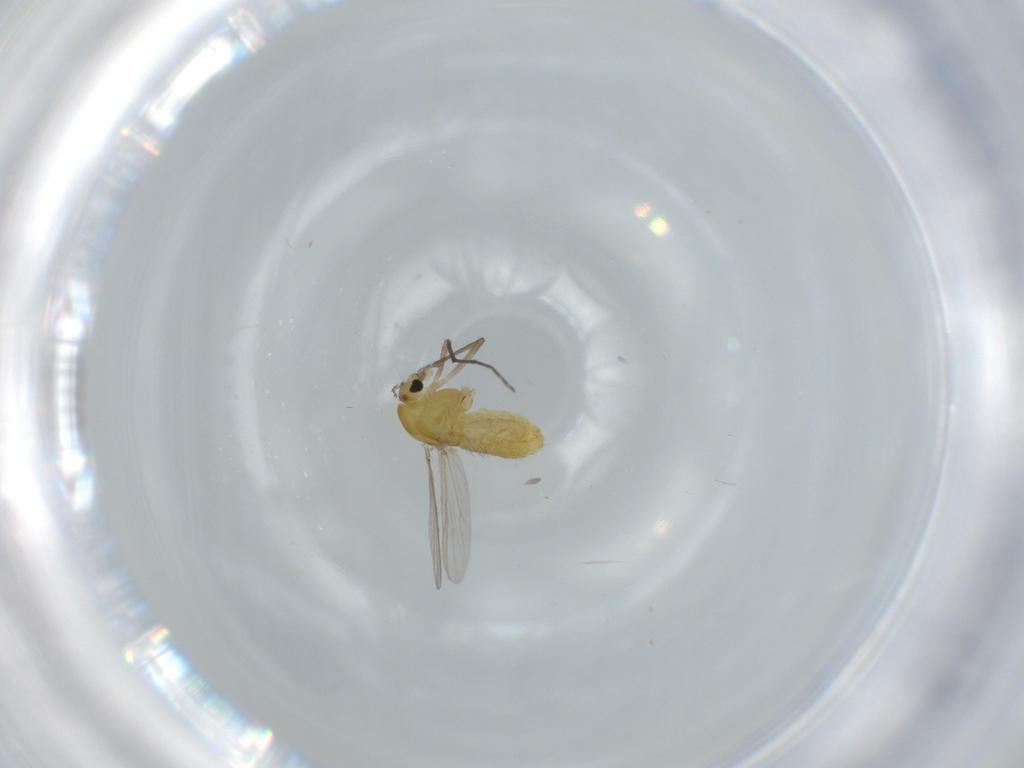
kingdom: Animalia
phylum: Arthropoda
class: Insecta
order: Diptera
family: Chironomidae
